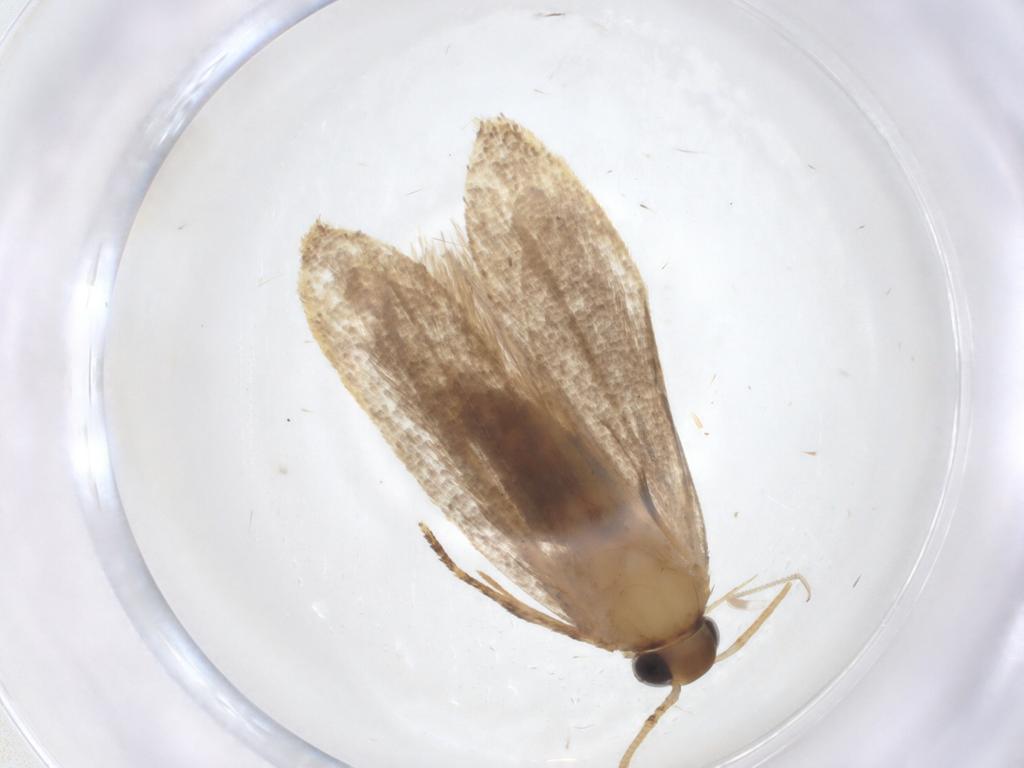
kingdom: Animalia
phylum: Arthropoda
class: Insecta
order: Lepidoptera
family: Oecophoridae
